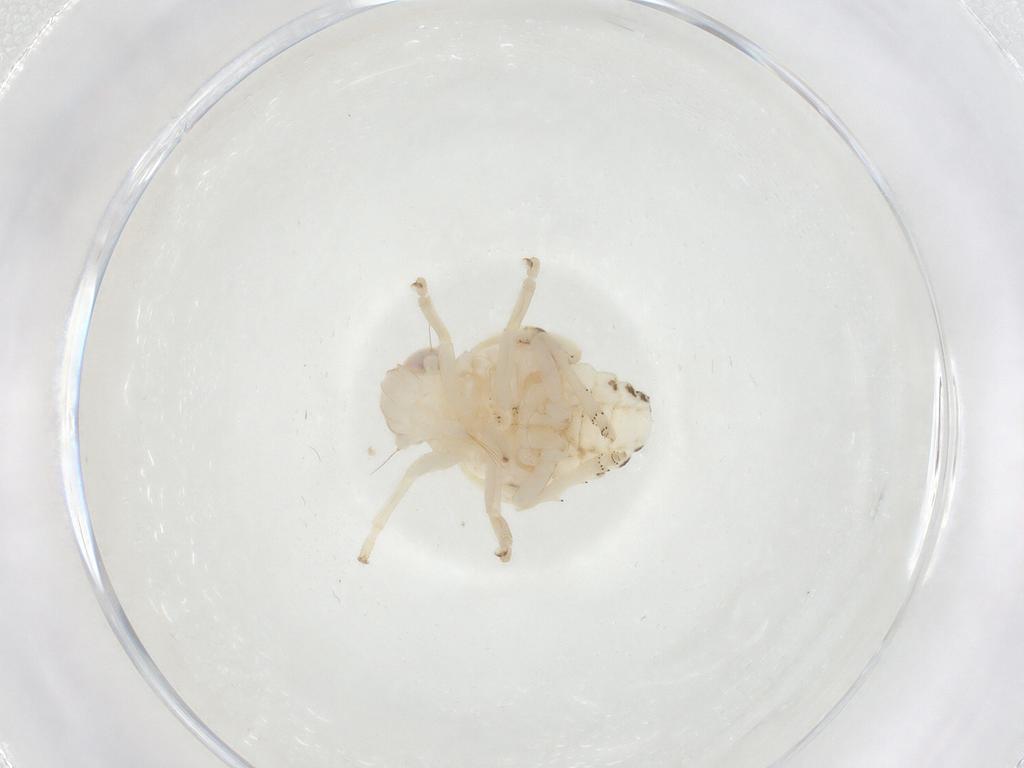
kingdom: Animalia
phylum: Arthropoda
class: Insecta
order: Hemiptera
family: Nogodinidae
